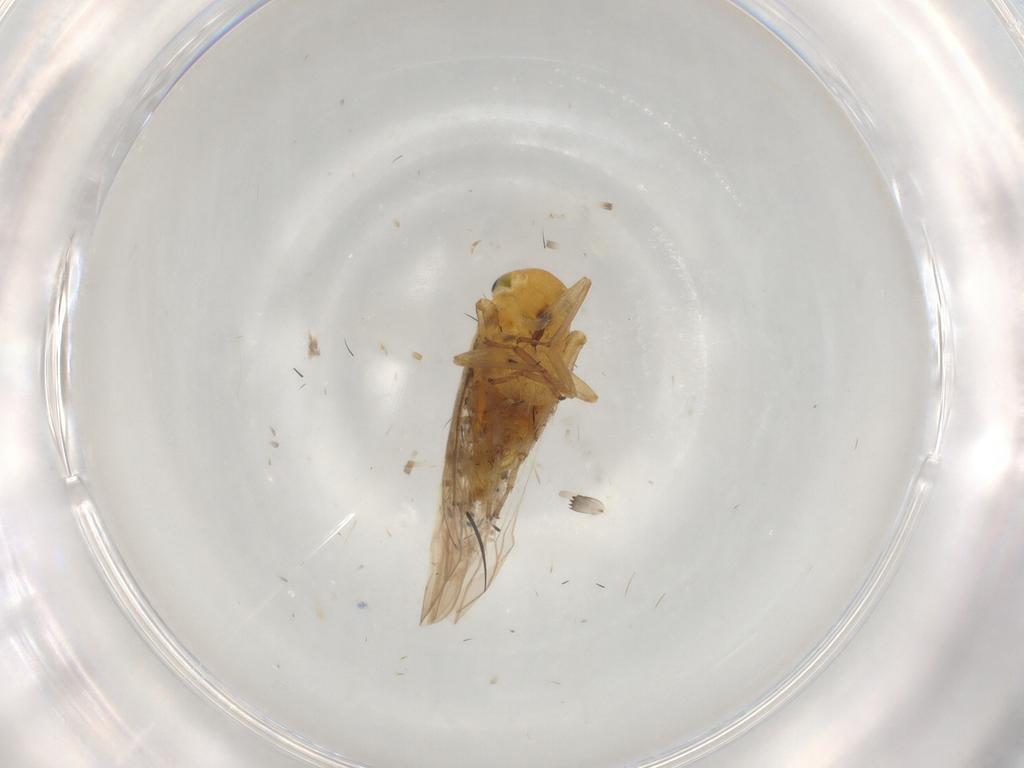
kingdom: Animalia
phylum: Arthropoda
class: Insecta
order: Hemiptera
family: Cicadellidae
